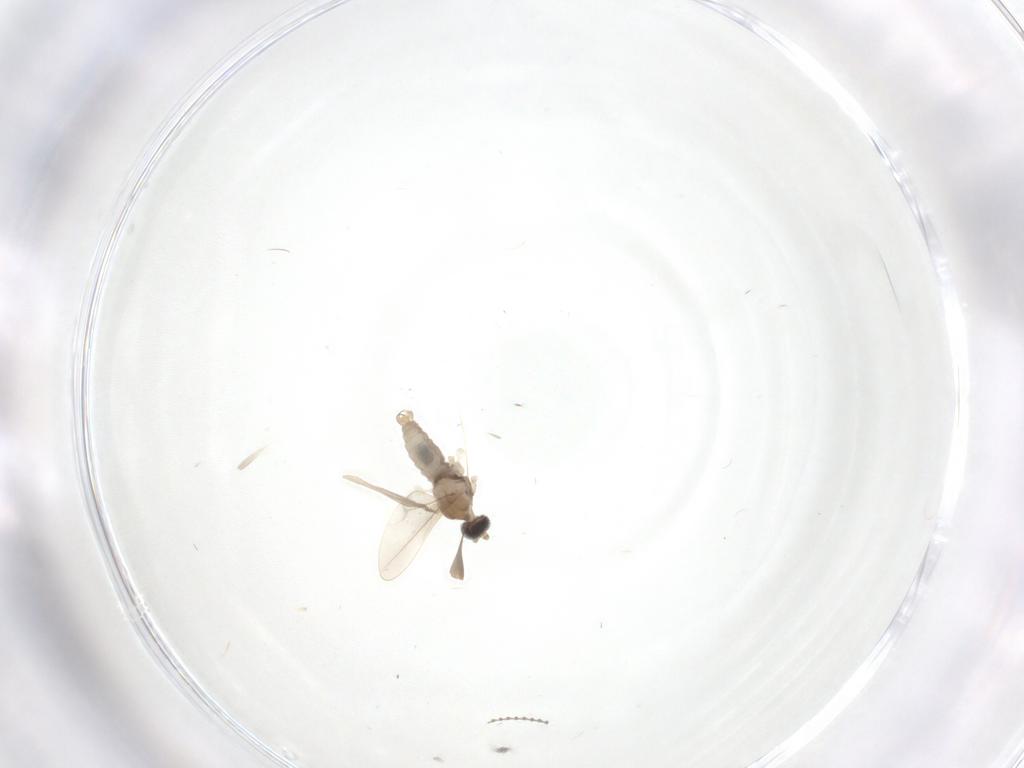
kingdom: Animalia
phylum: Arthropoda
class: Insecta
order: Diptera
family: Cecidomyiidae
